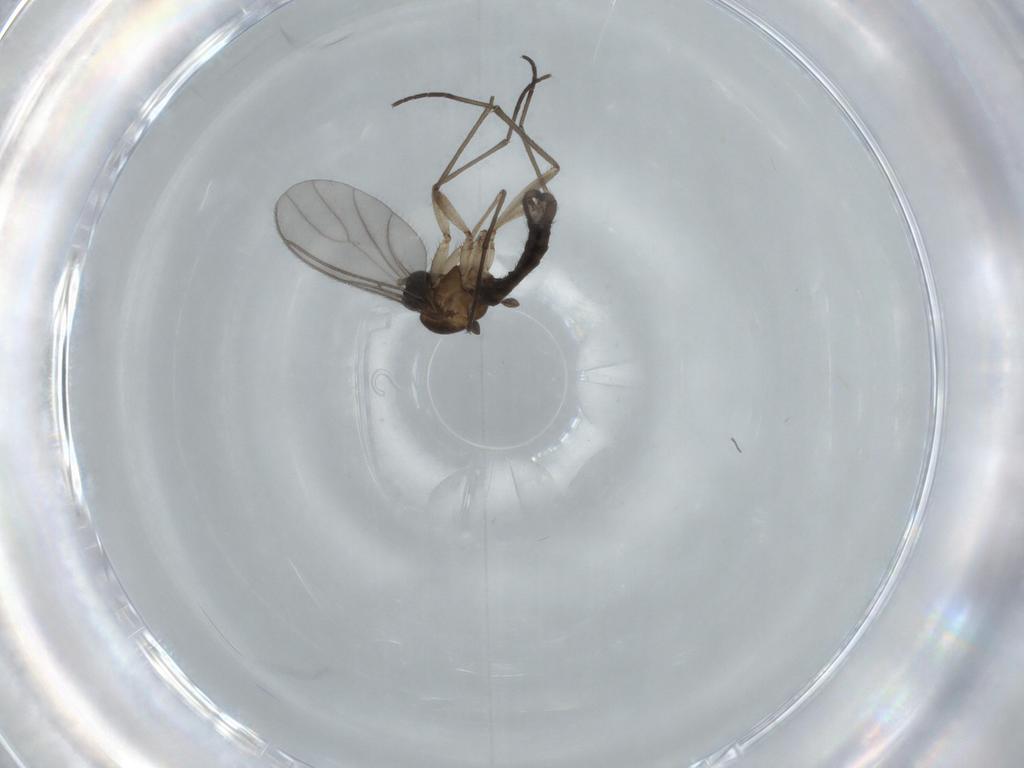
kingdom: Animalia
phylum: Arthropoda
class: Insecta
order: Diptera
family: Sciaridae
